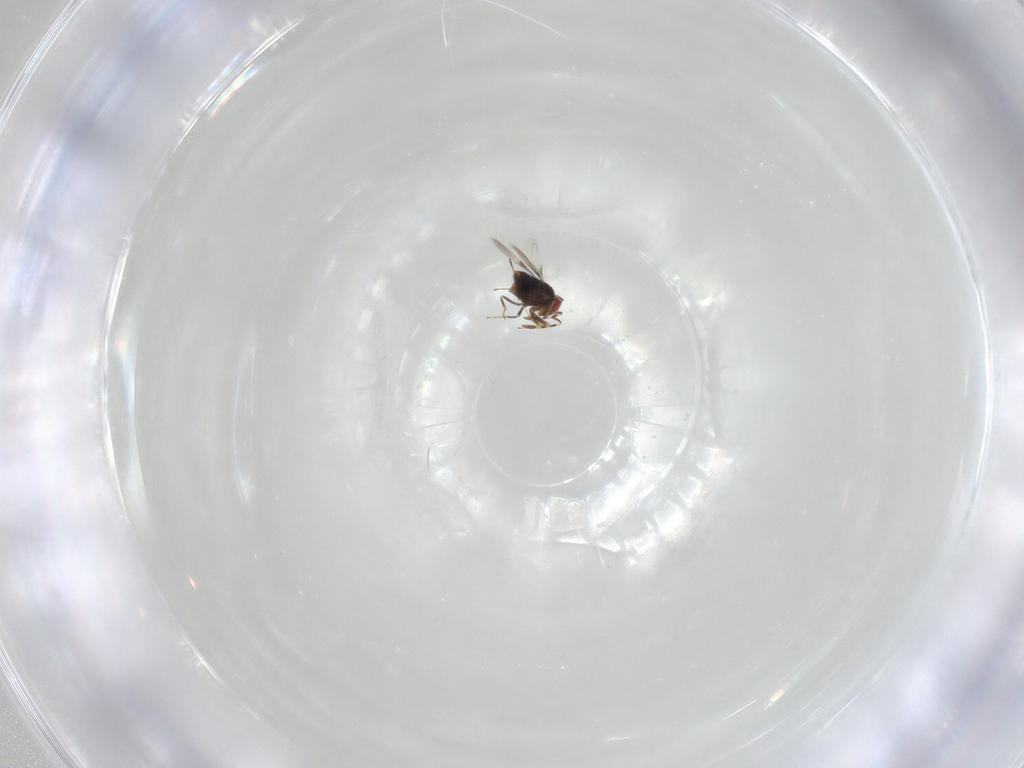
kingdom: Animalia
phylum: Arthropoda
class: Insecta
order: Hymenoptera
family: Azotidae
